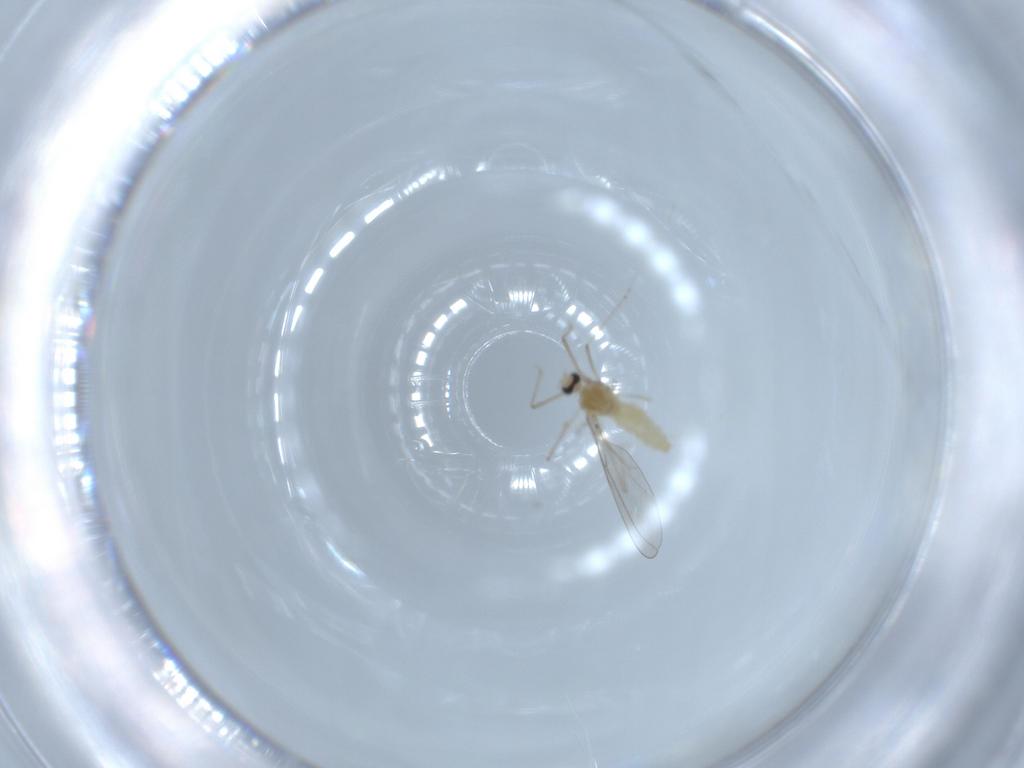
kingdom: Animalia
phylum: Arthropoda
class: Insecta
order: Diptera
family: Cecidomyiidae
